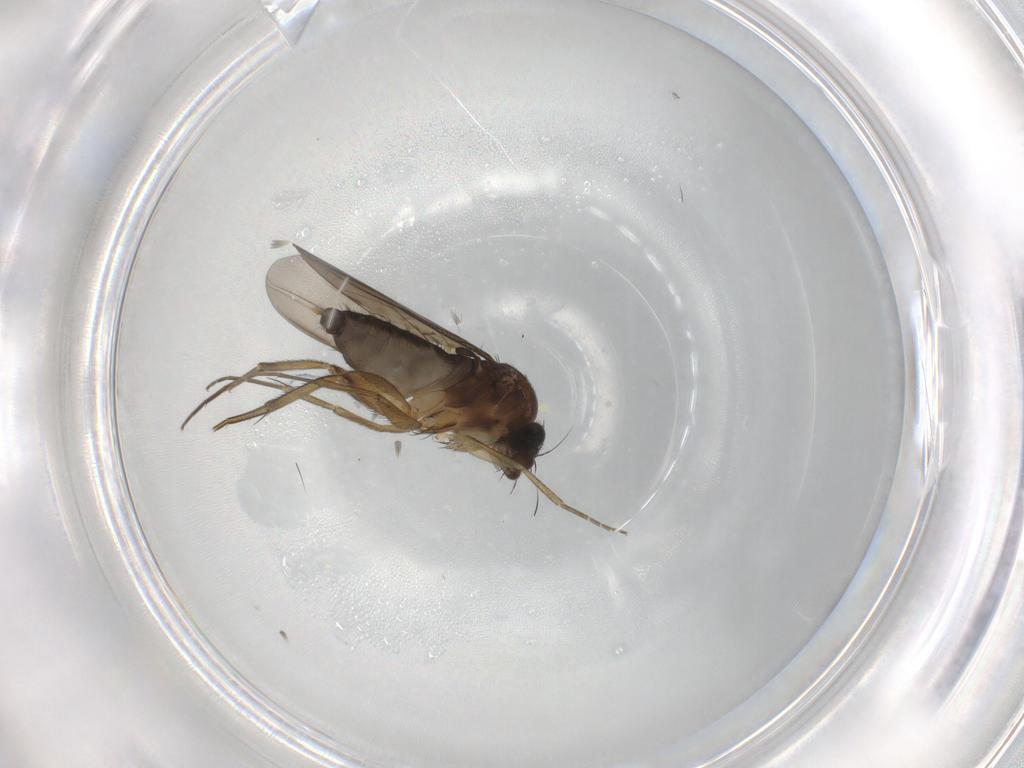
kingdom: Animalia
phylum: Arthropoda
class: Insecta
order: Diptera
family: Phoridae
